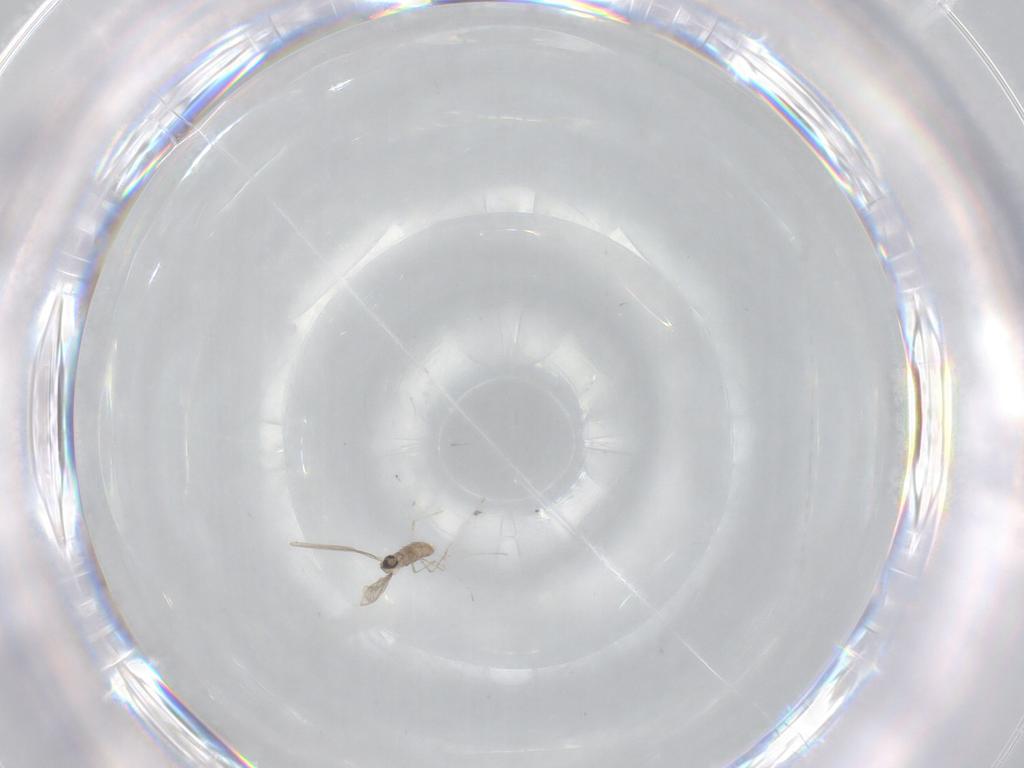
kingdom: Animalia
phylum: Arthropoda
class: Insecta
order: Diptera
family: Cecidomyiidae
